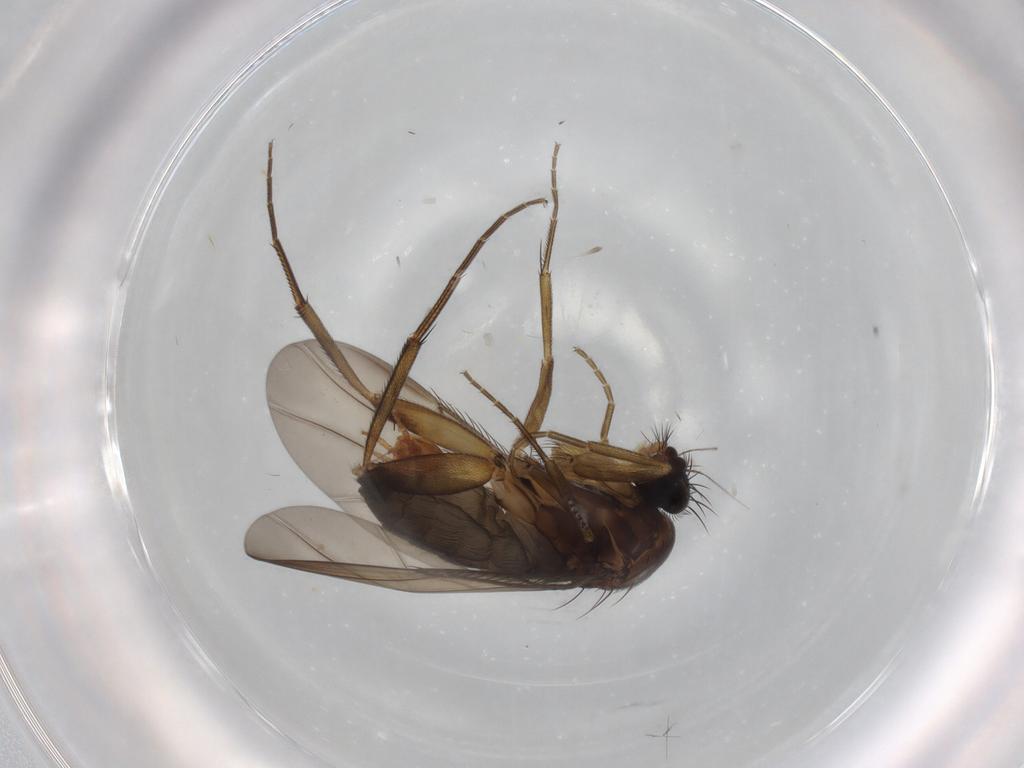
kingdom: Animalia
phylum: Arthropoda
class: Insecta
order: Diptera
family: Phoridae
